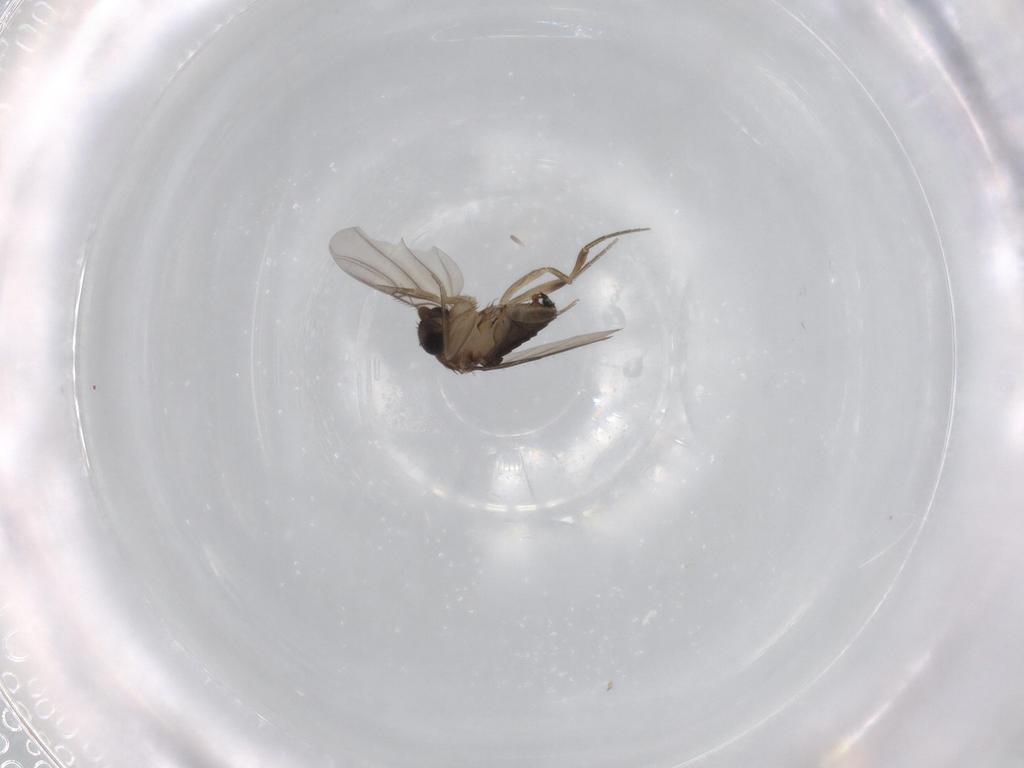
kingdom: Animalia
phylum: Arthropoda
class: Insecta
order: Diptera
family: Phoridae
